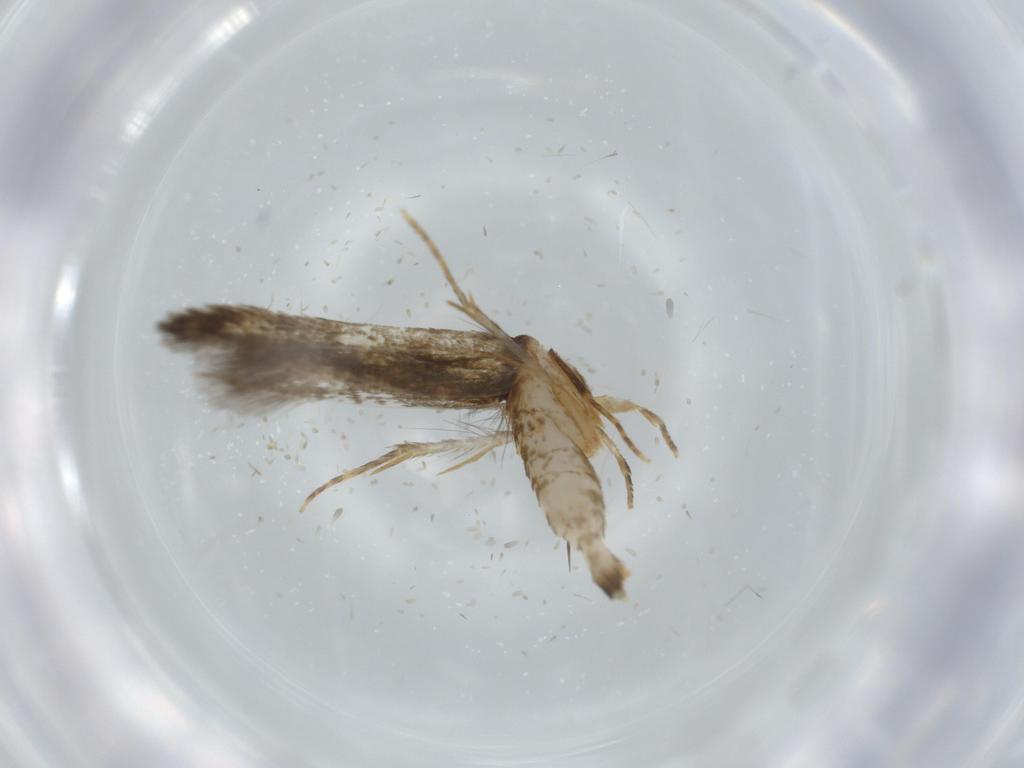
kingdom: Animalia
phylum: Arthropoda
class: Insecta
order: Lepidoptera
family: Tineidae
